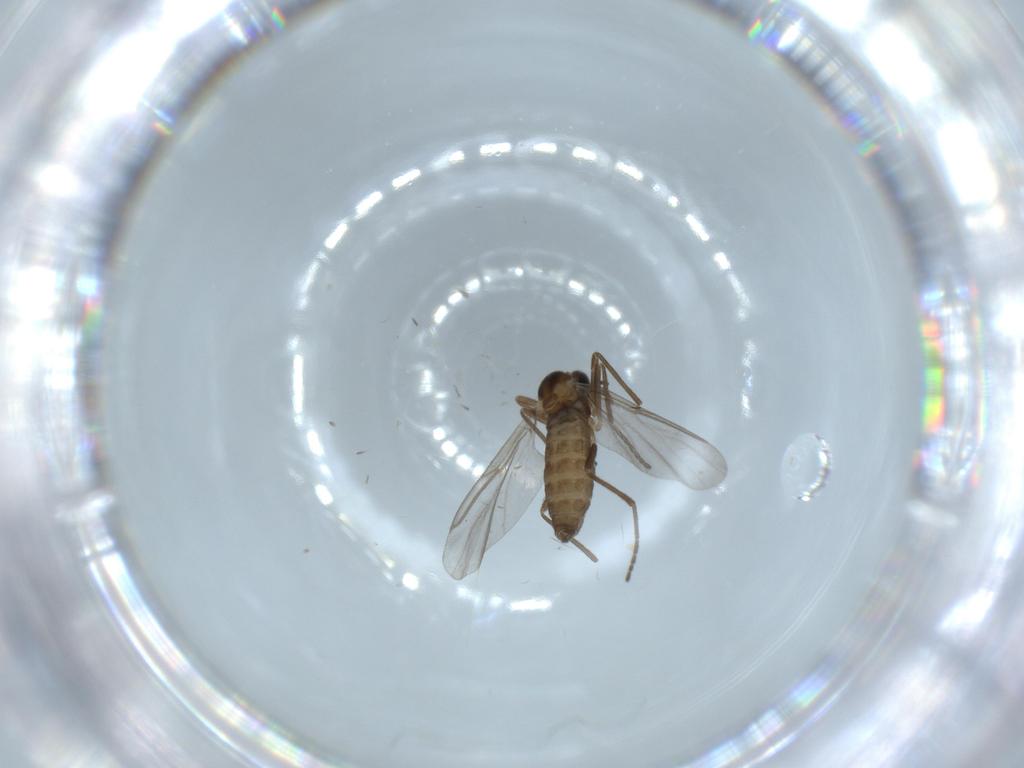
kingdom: Animalia
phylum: Arthropoda
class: Insecta
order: Diptera
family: Cecidomyiidae
